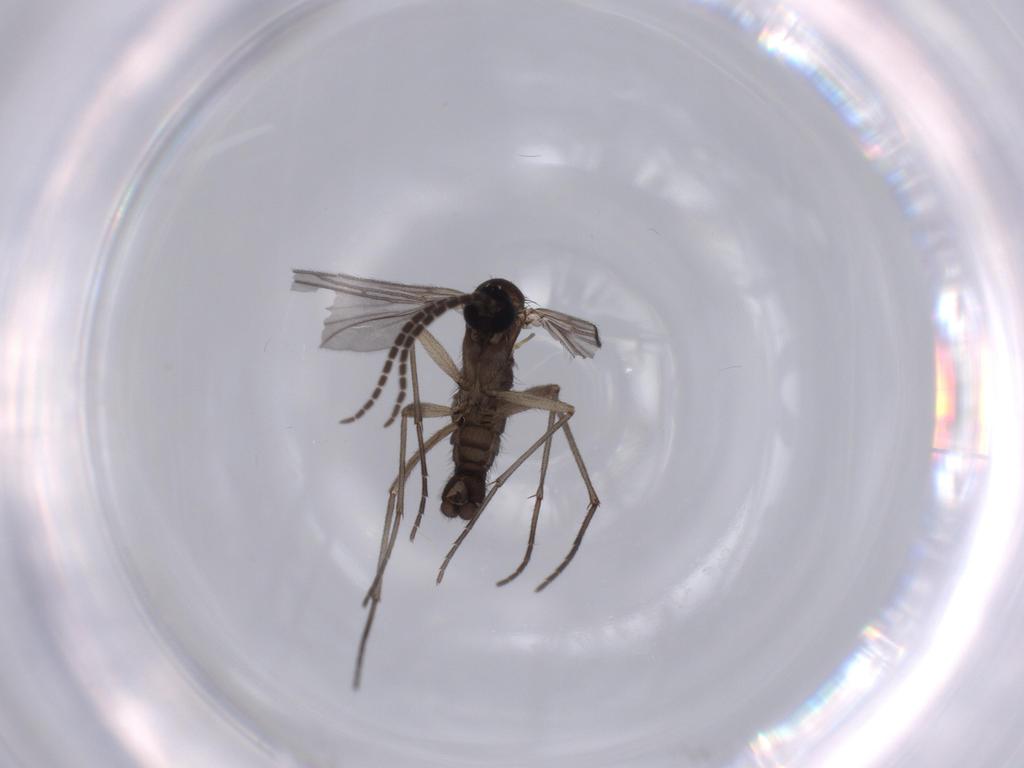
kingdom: Animalia
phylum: Arthropoda
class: Insecta
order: Diptera
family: Sciaridae
